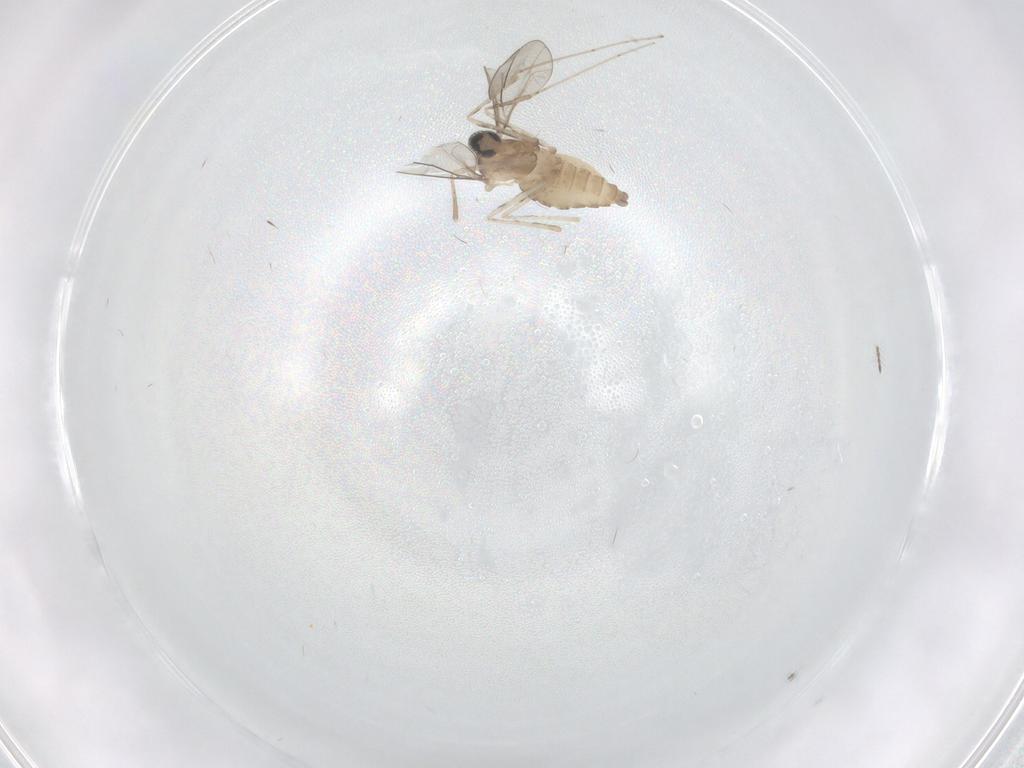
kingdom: Animalia
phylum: Arthropoda
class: Insecta
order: Diptera
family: Cecidomyiidae
